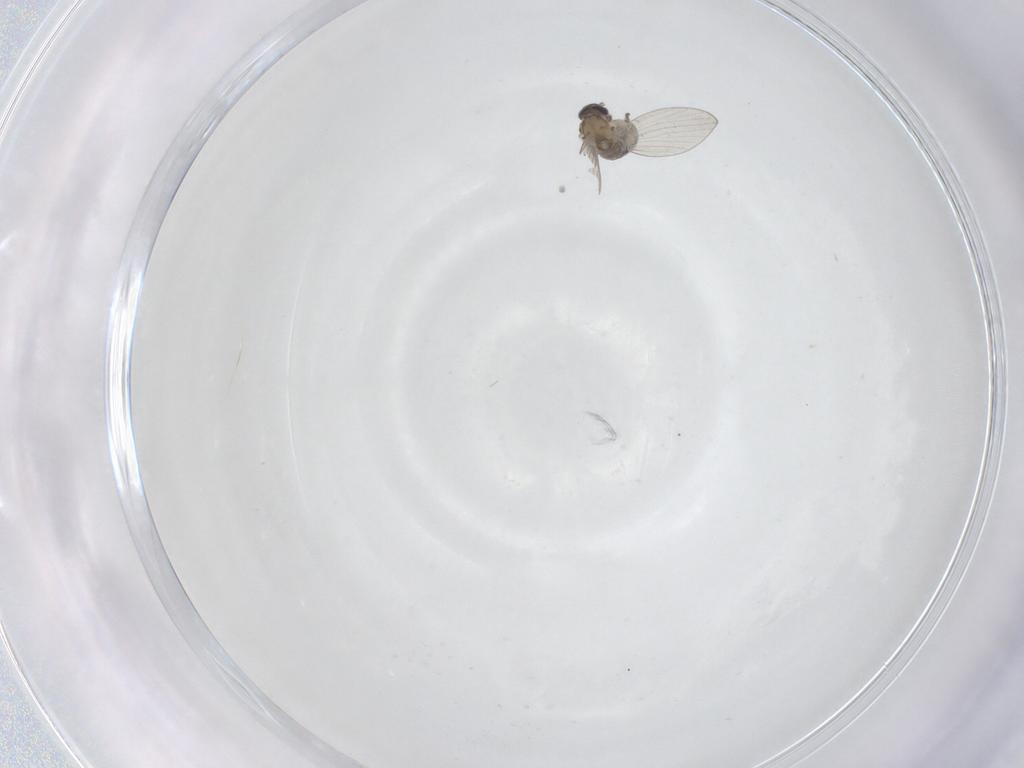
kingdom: Animalia
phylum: Arthropoda
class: Insecta
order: Diptera
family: Psychodidae
